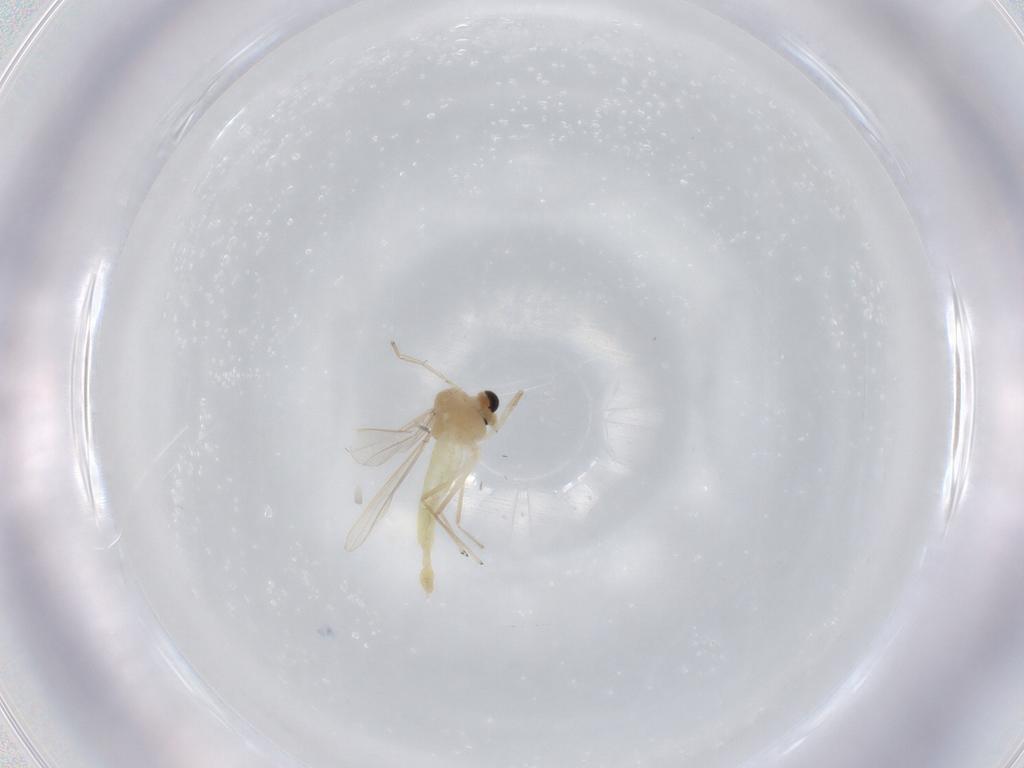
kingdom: Animalia
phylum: Arthropoda
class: Insecta
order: Diptera
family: Chironomidae
